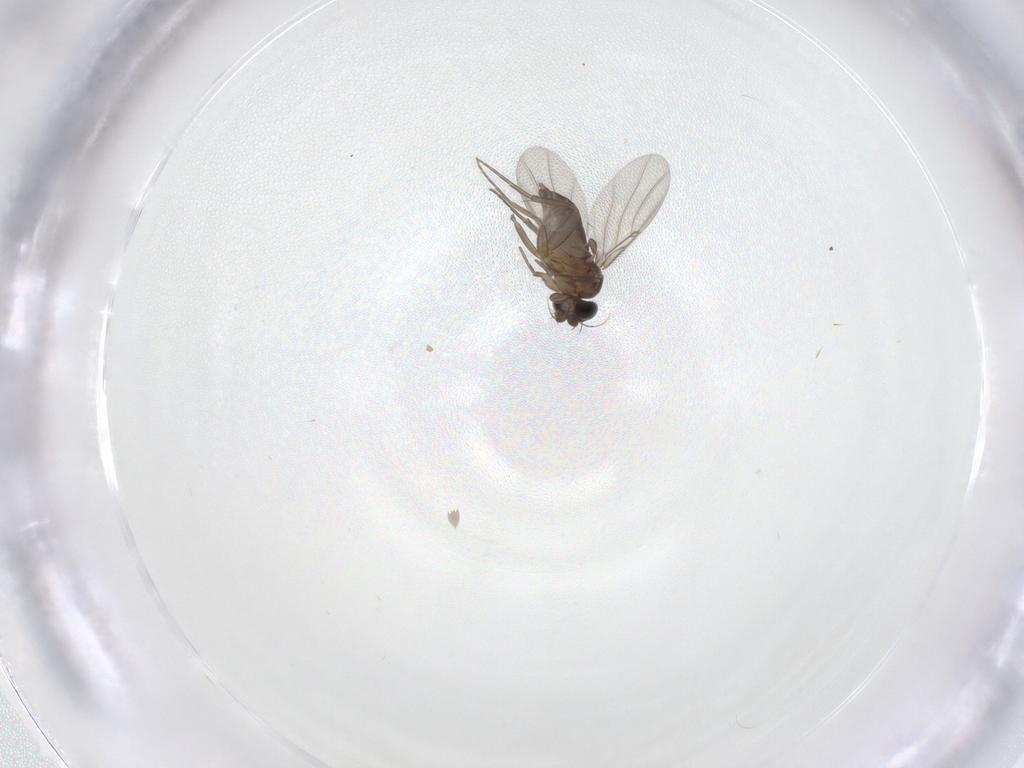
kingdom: Animalia
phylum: Arthropoda
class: Insecta
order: Diptera
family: Phoridae
